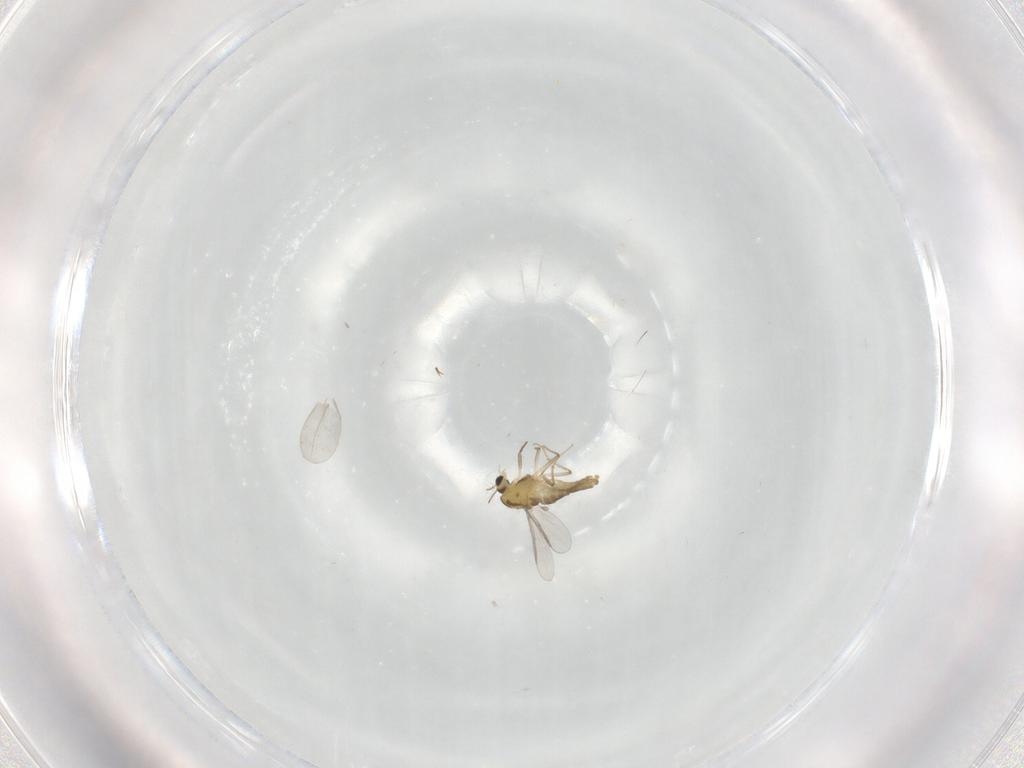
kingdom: Animalia
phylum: Arthropoda
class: Insecta
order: Diptera
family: Chironomidae
